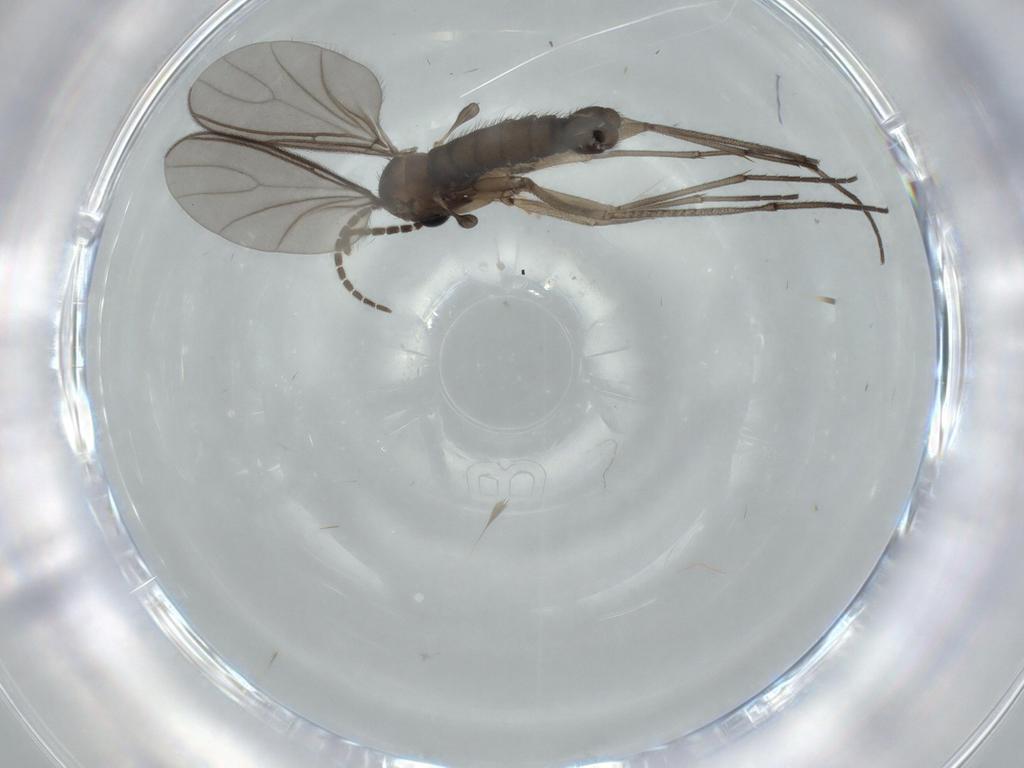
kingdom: Animalia
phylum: Arthropoda
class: Insecta
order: Diptera
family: Sciaridae
